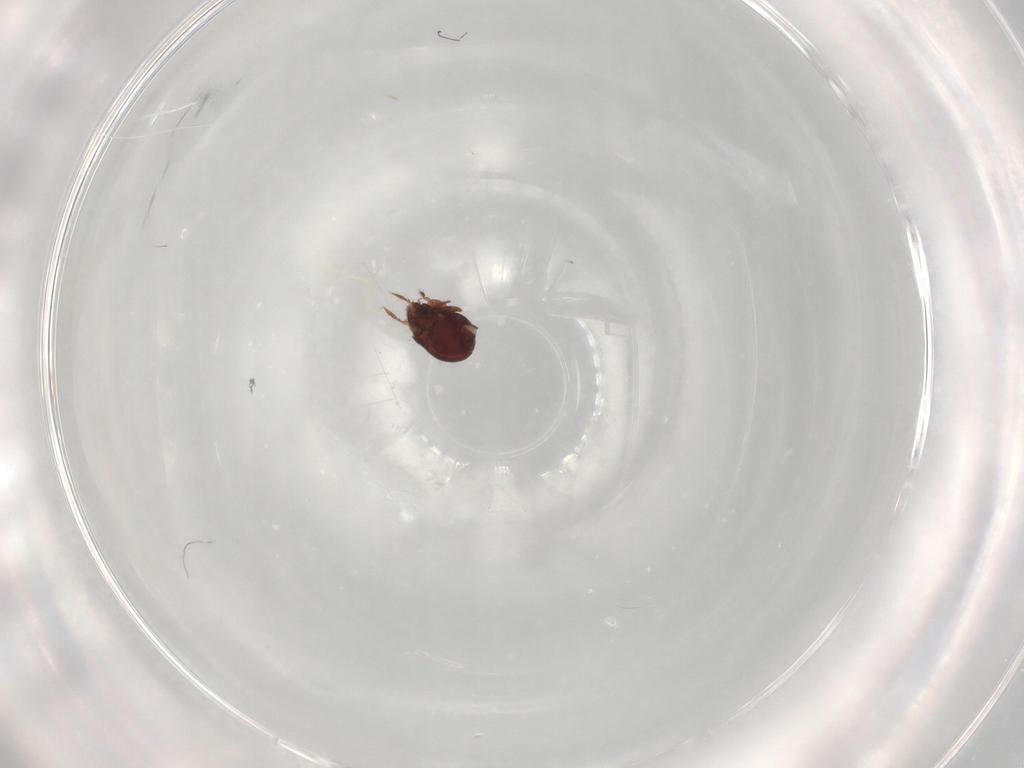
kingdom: Animalia
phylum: Arthropoda
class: Arachnida
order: Sarcoptiformes
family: Humerobatidae
